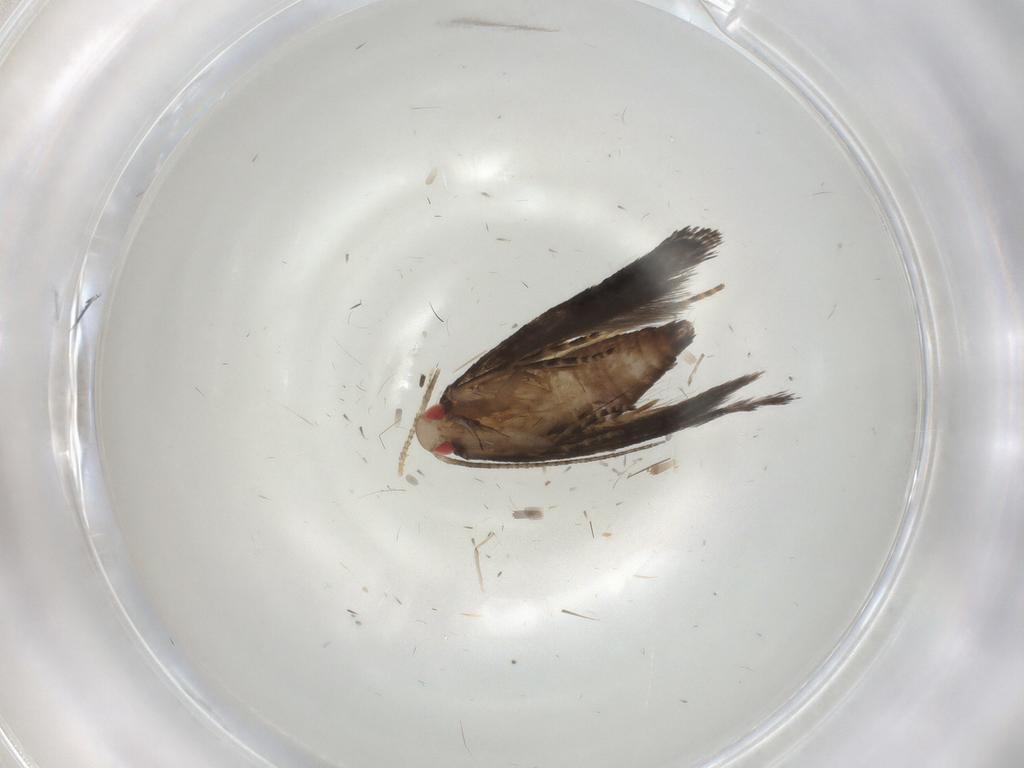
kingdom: Animalia
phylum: Arthropoda
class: Insecta
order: Lepidoptera
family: Gelechiidae
